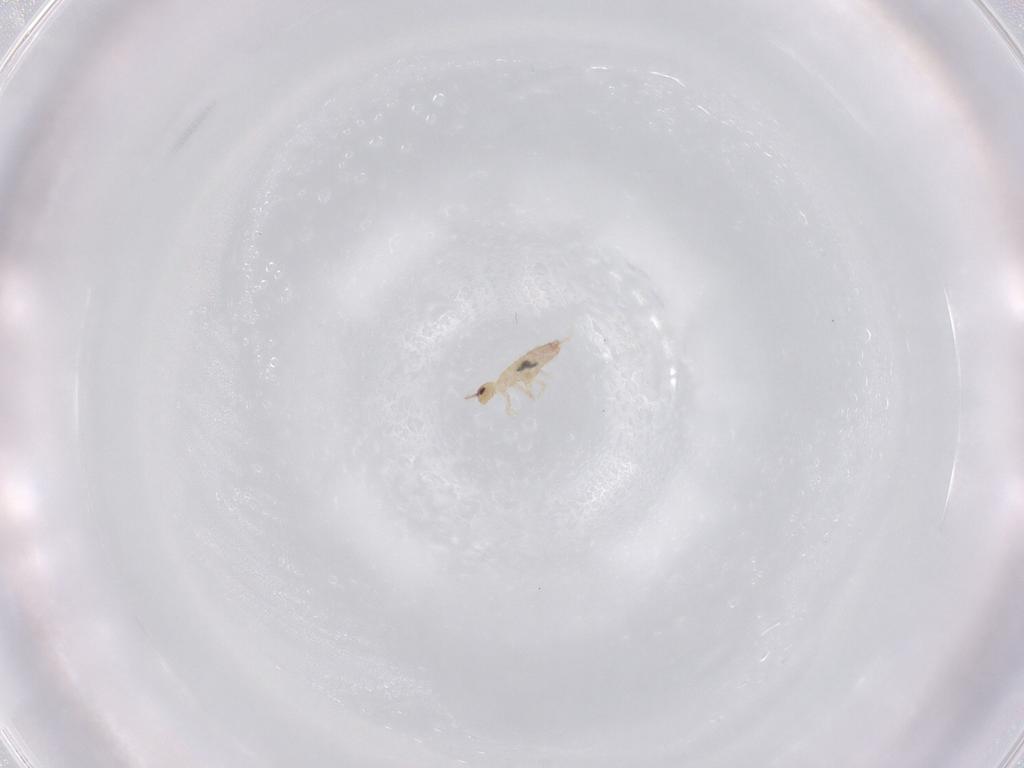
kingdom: Animalia
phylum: Arthropoda
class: Collembola
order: Entomobryomorpha
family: Entomobryidae
